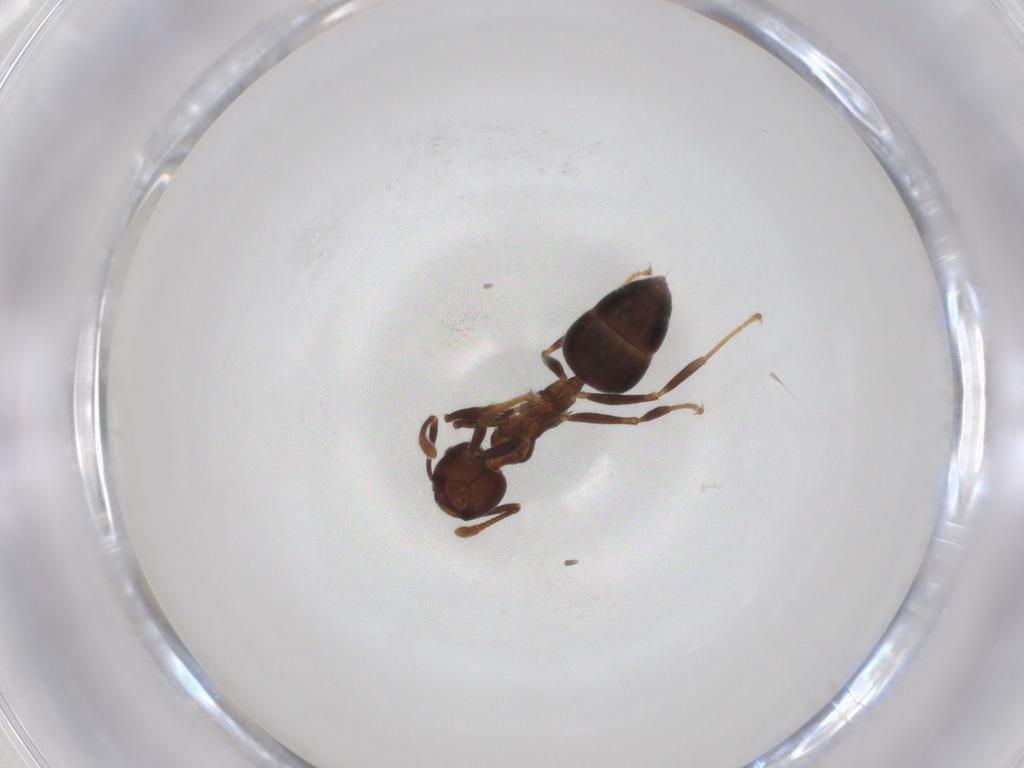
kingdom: Animalia
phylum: Arthropoda
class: Insecta
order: Hymenoptera
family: Formicidae
